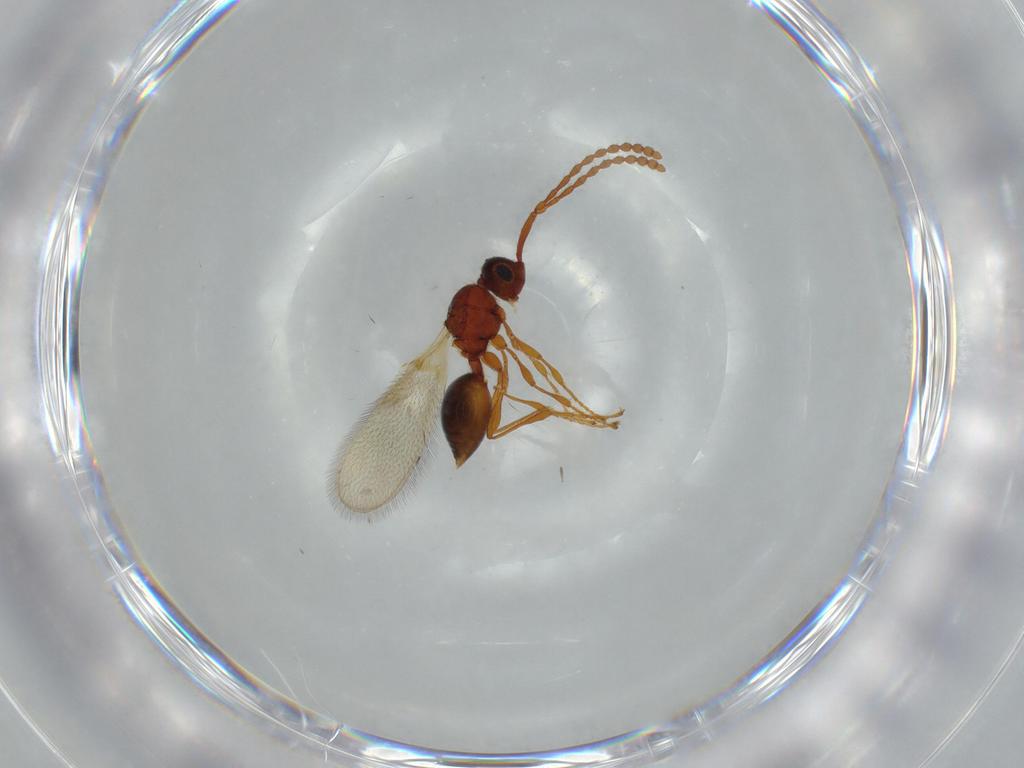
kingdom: Animalia
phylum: Arthropoda
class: Insecta
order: Hymenoptera
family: Diapriidae
